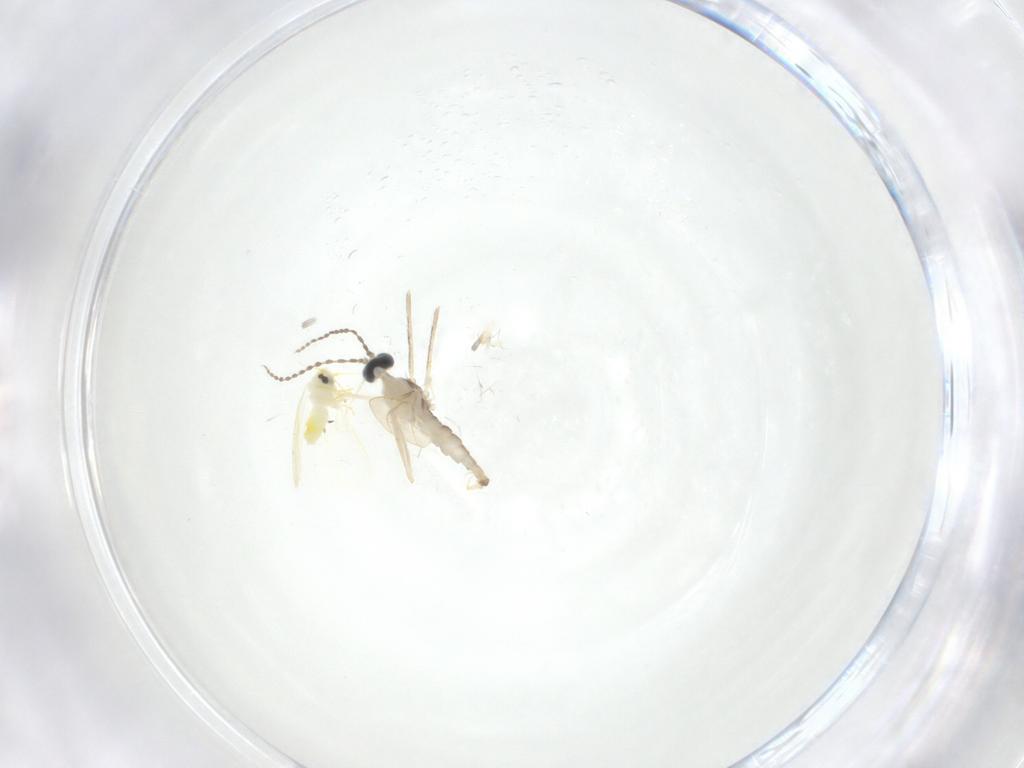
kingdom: Animalia
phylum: Arthropoda
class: Insecta
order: Diptera
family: Cecidomyiidae
